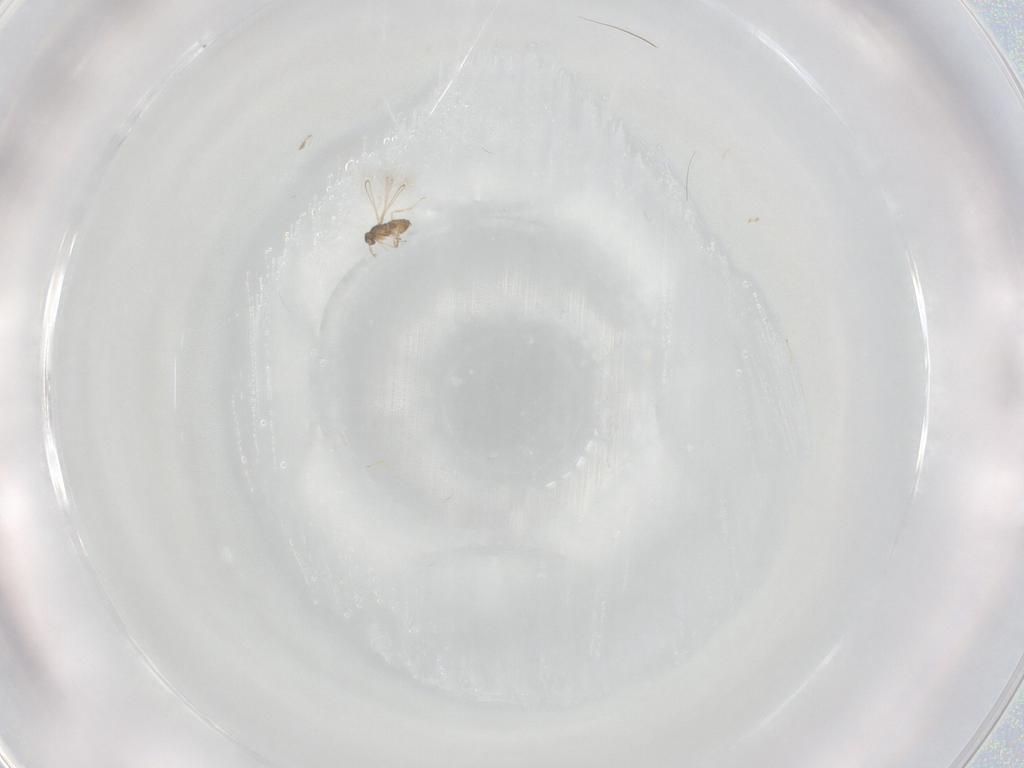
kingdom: Animalia
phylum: Arthropoda
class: Insecta
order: Hymenoptera
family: Trichogrammatidae
